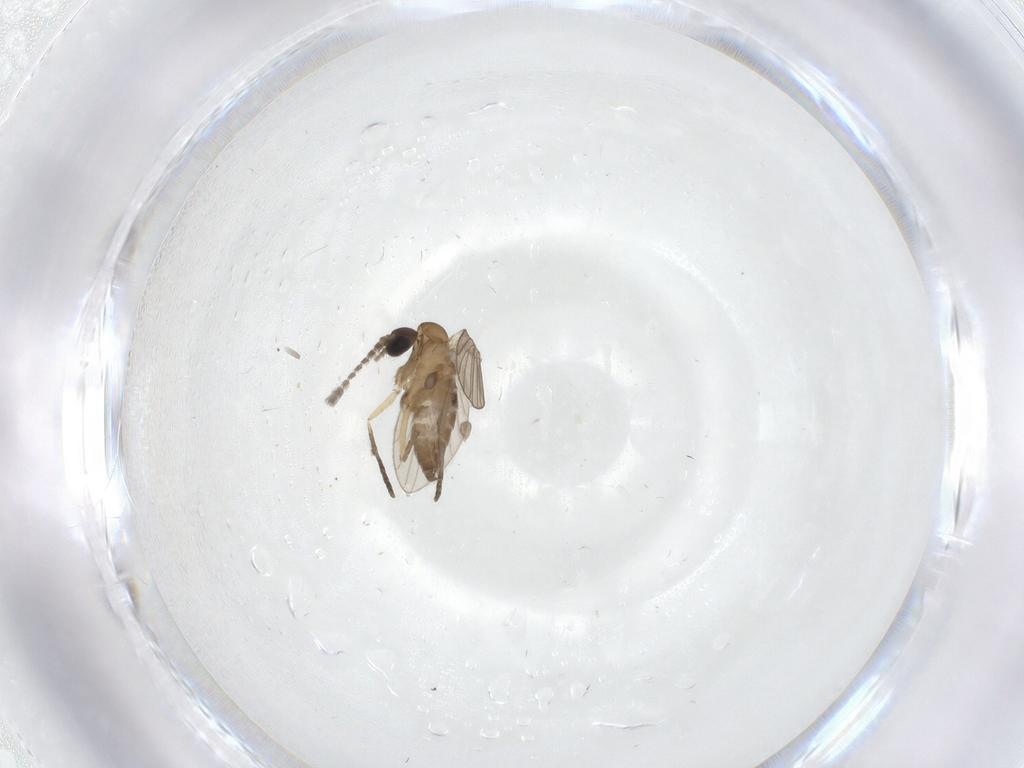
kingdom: Animalia
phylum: Arthropoda
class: Insecta
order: Diptera
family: Limoniidae
